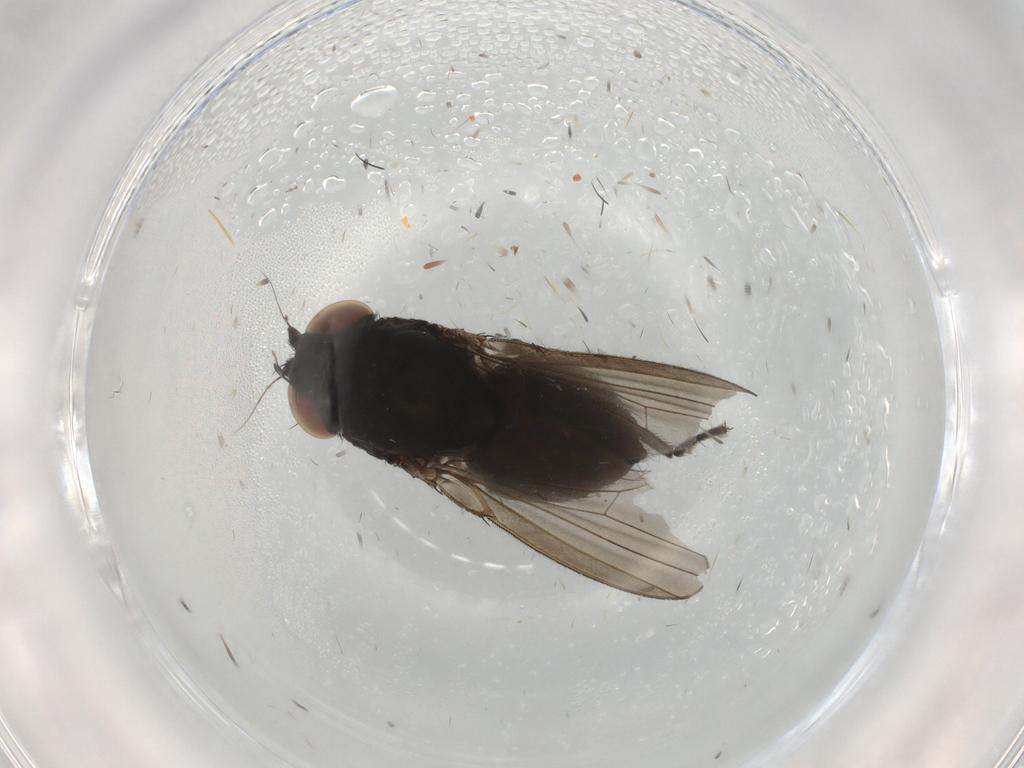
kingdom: Animalia
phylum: Arthropoda
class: Insecta
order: Diptera
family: Milichiidae
